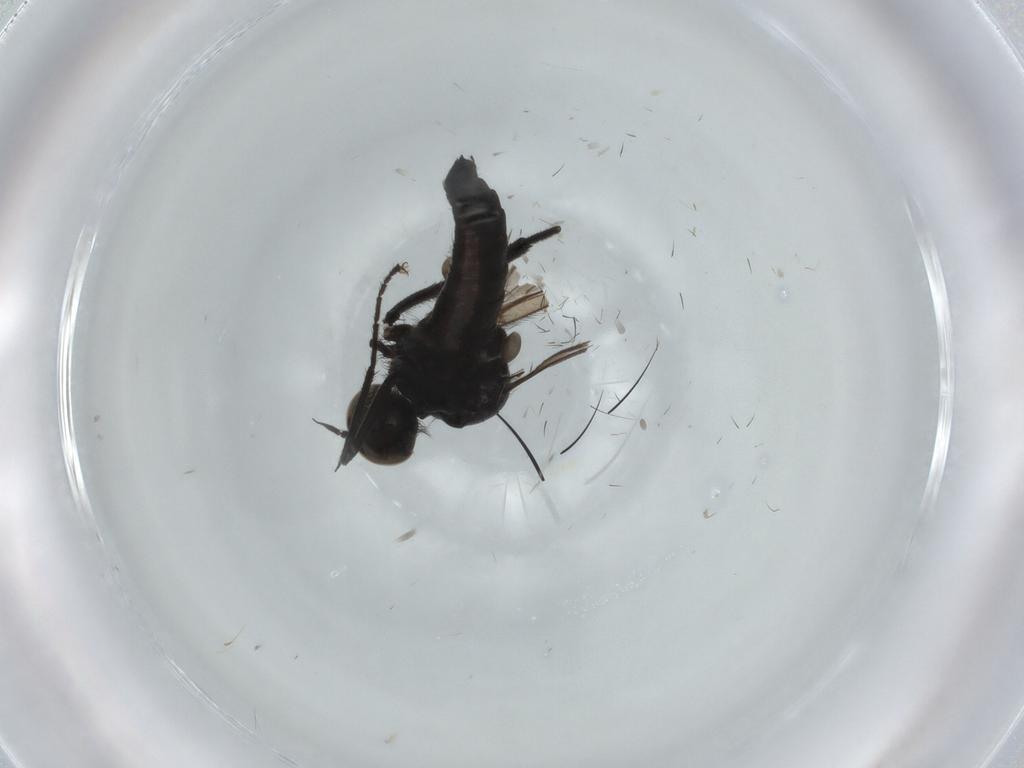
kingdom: Animalia
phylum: Arthropoda
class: Insecta
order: Diptera
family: Hybotidae
